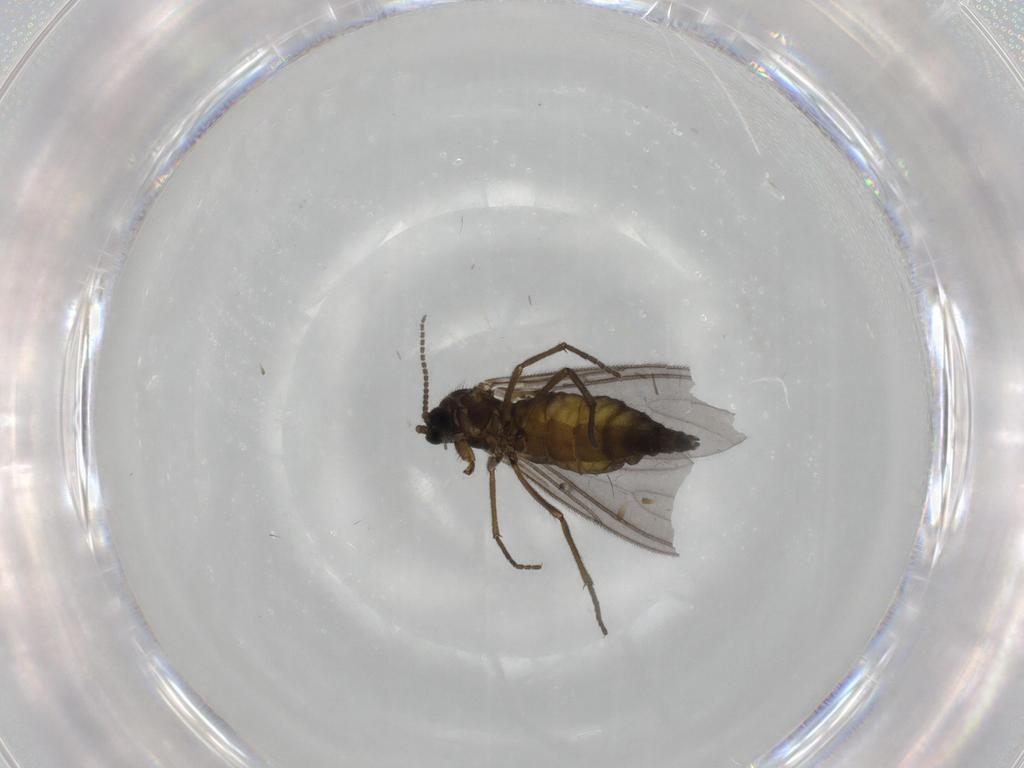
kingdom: Animalia
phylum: Arthropoda
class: Insecta
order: Diptera
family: Sciaridae
